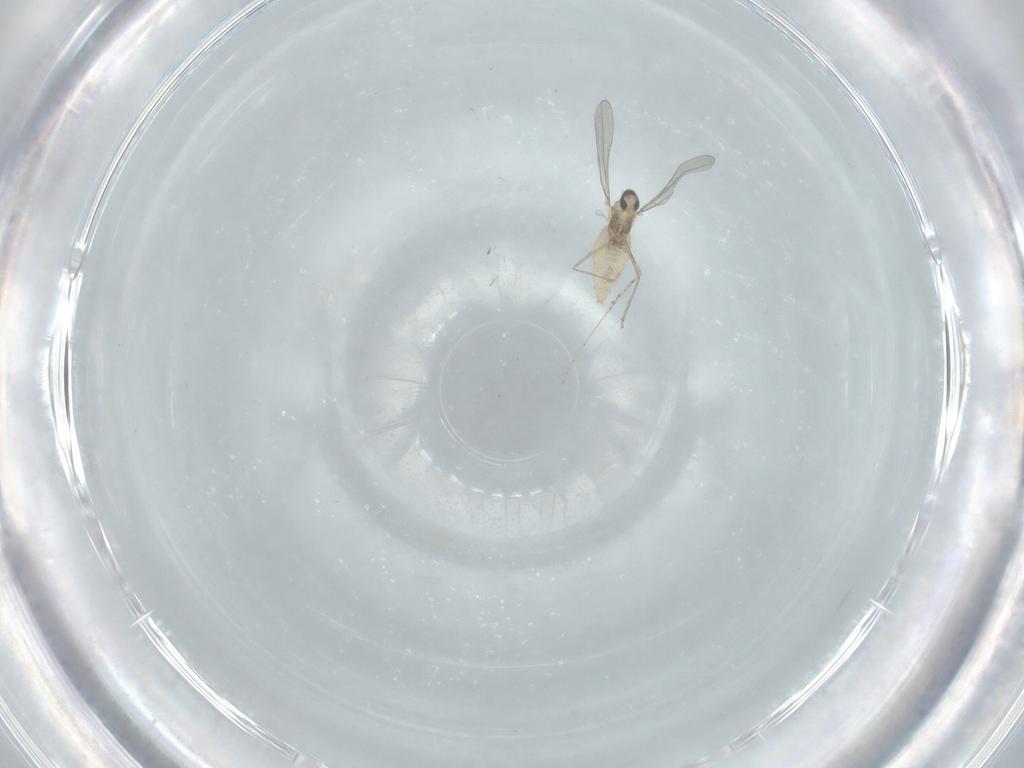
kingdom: Animalia
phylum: Arthropoda
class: Insecta
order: Diptera
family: Cecidomyiidae
